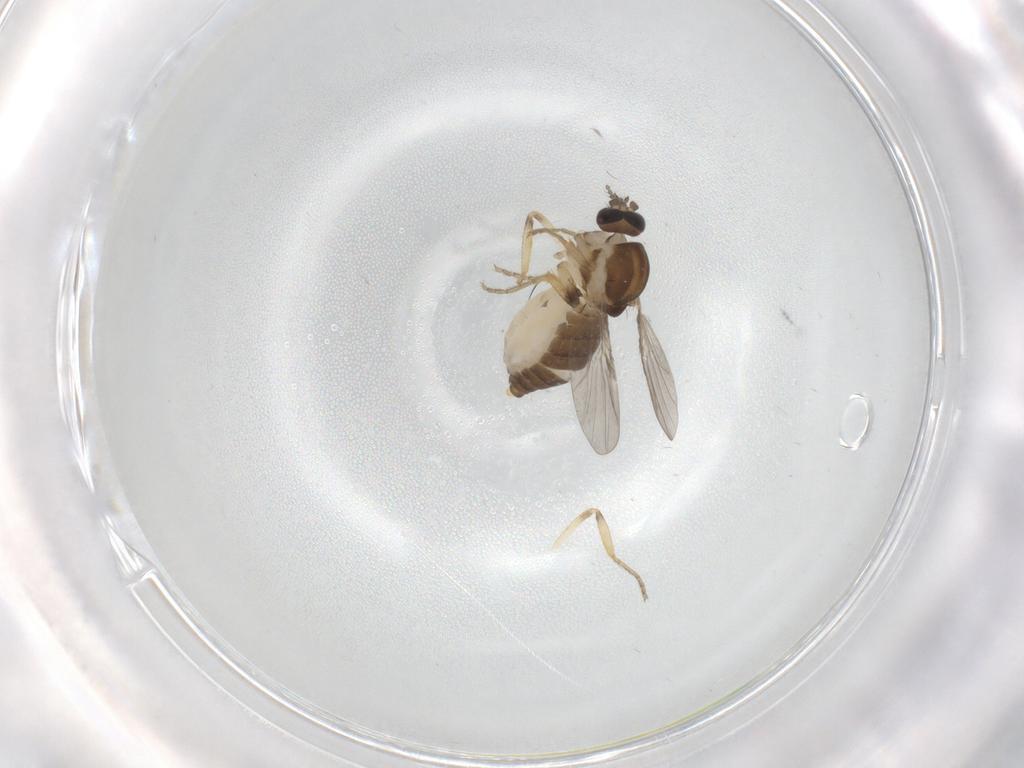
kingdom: Animalia
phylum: Arthropoda
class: Insecta
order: Diptera
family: Ceratopogonidae
